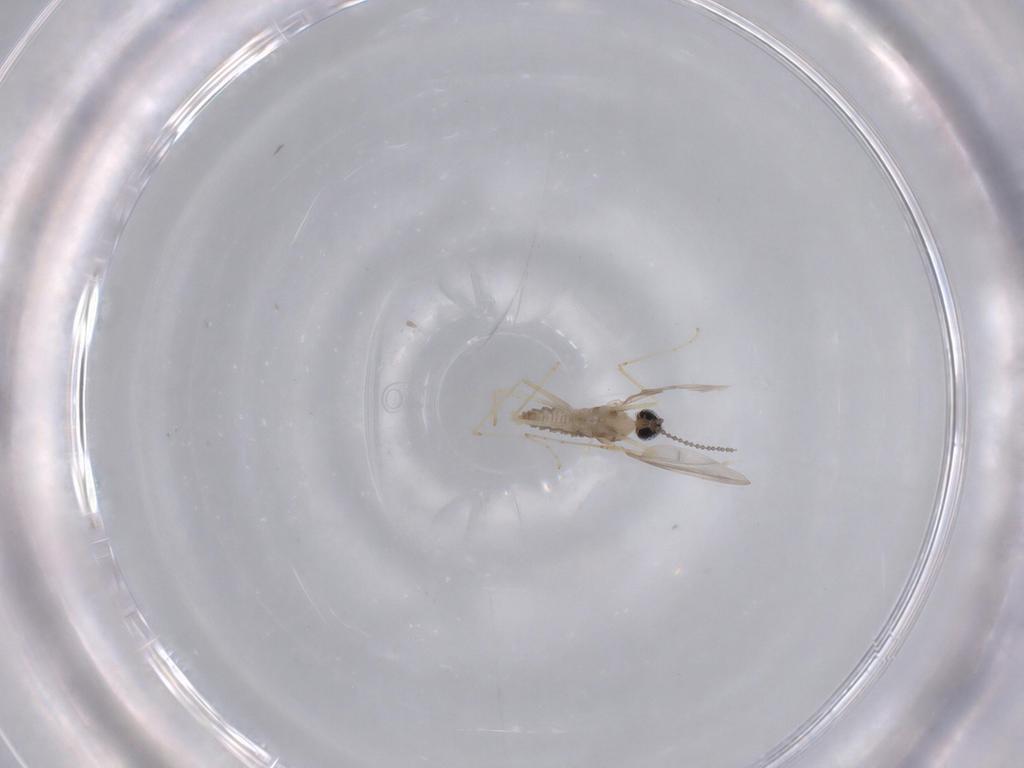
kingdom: Animalia
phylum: Arthropoda
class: Insecta
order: Diptera
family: Cecidomyiidae
